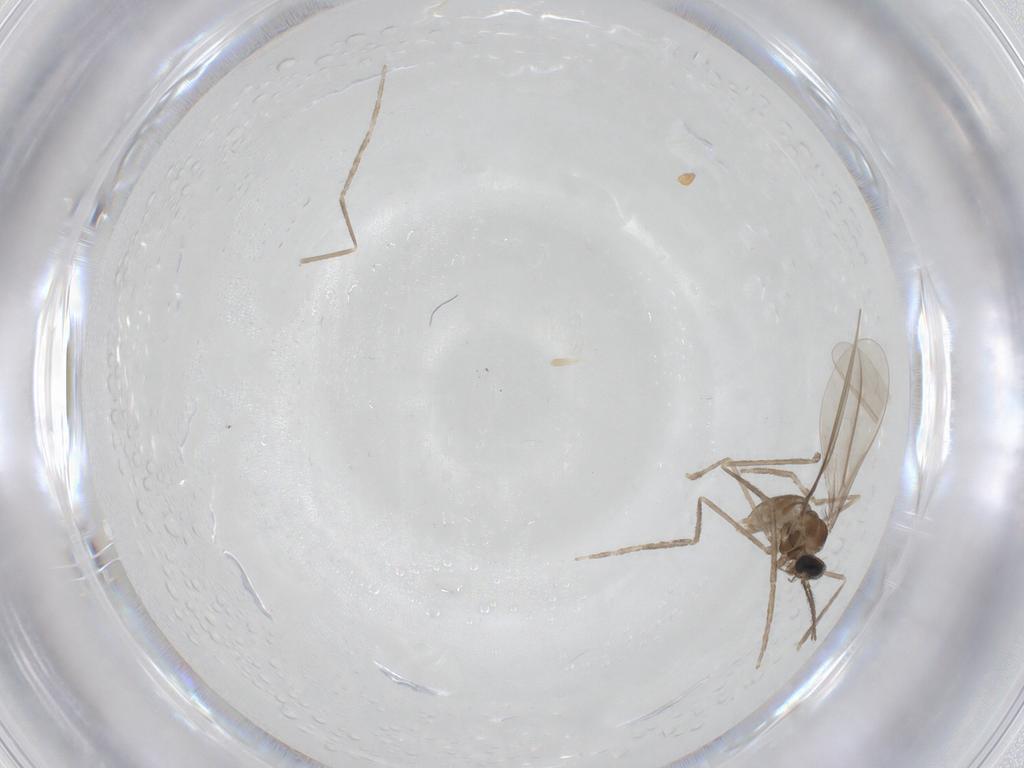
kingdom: Animalia
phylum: Arthropoda
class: Insecta
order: Diptera
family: Cecidomyiidae
